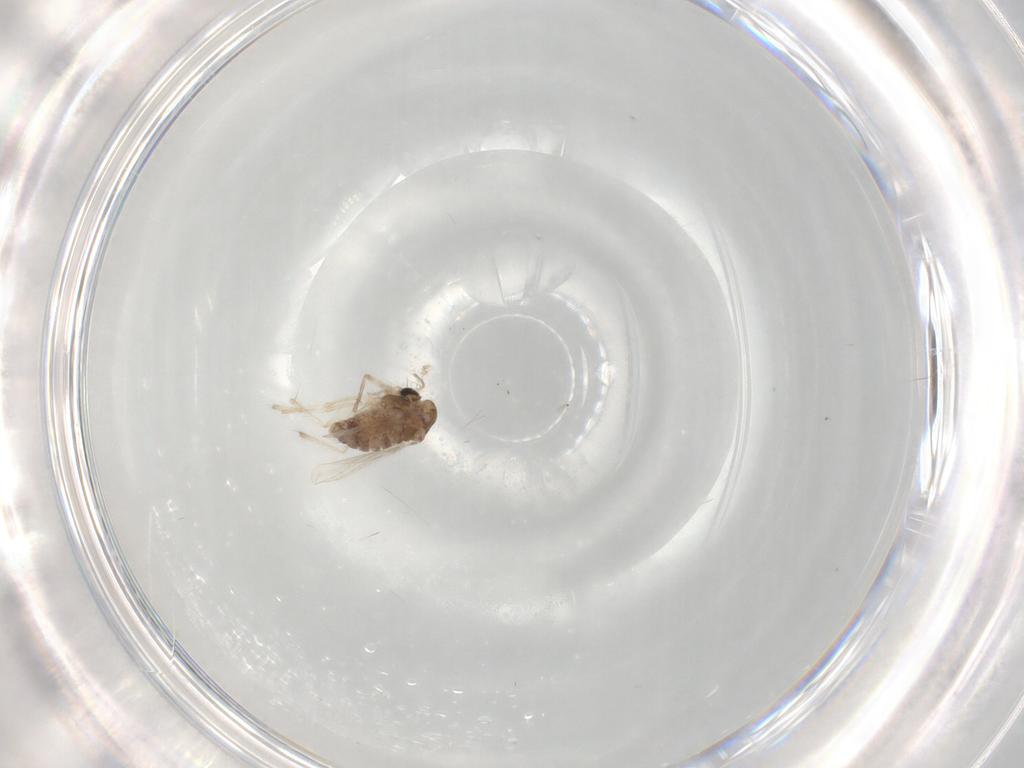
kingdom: Animalia
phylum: Arthropoda
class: Insecta
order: Diptera
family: Chironomidae
